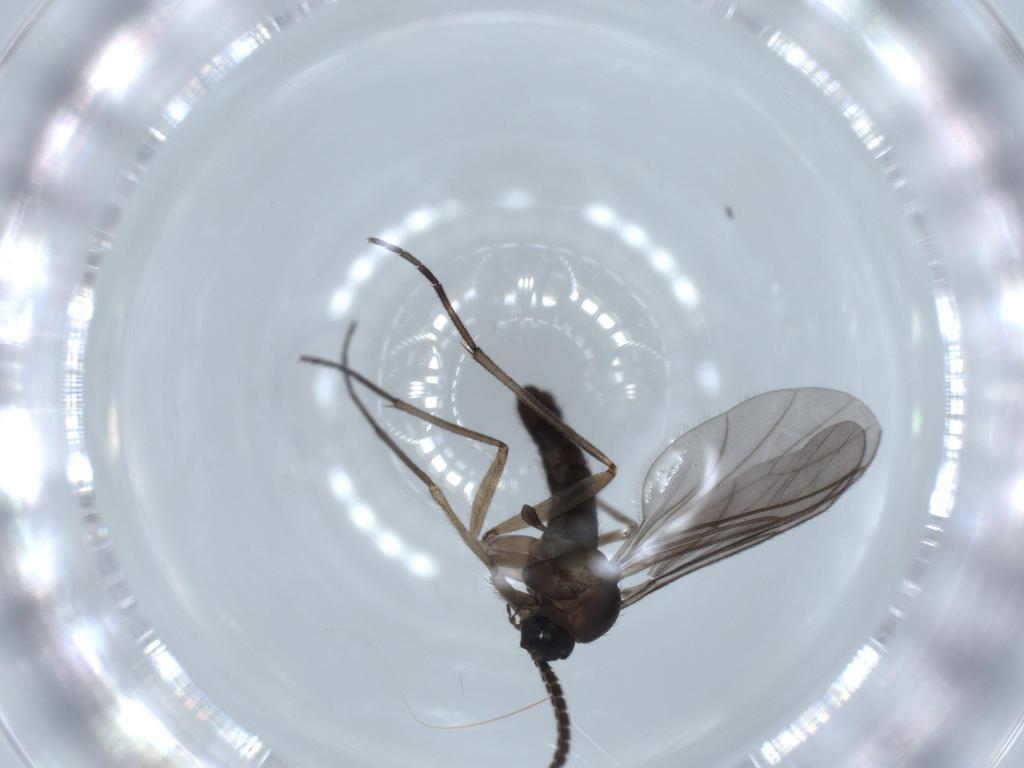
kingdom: Animalia
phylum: Arthropoda
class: Insecta
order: Diptera
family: Sciaridae
